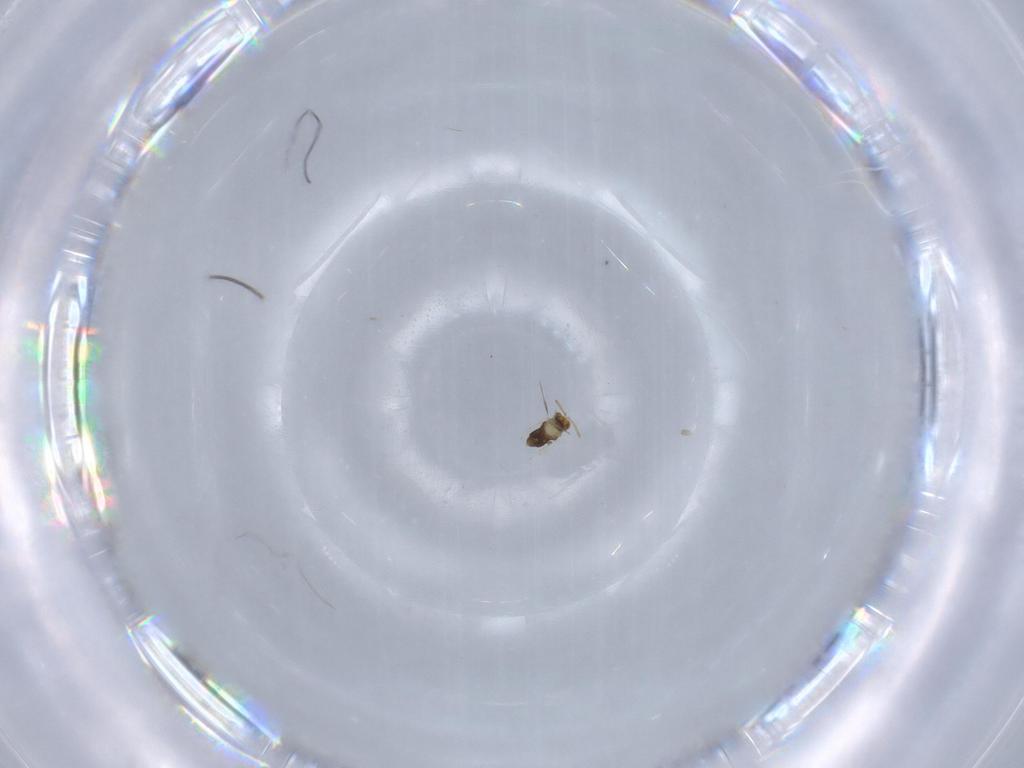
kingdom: Animalia
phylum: Arthropoda
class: Insecta
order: Hymenoptera
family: Aphelinidae
